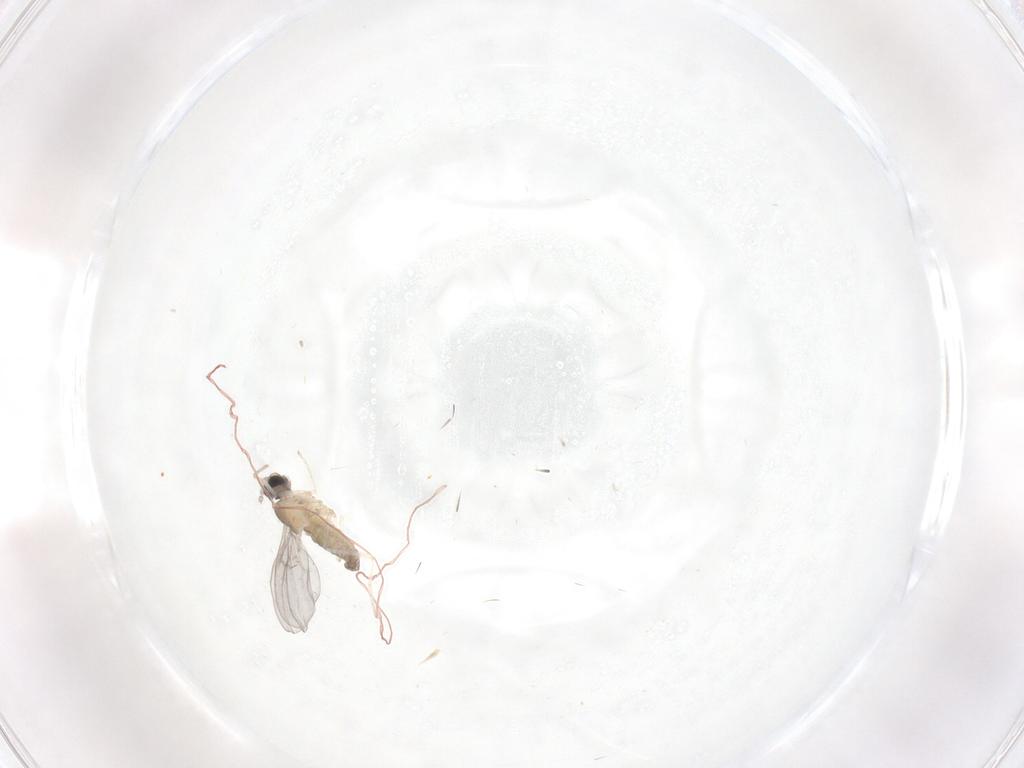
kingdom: Animalia
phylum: Arthropoda
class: Insecta
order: Diptera
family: Cecidomyiidae
